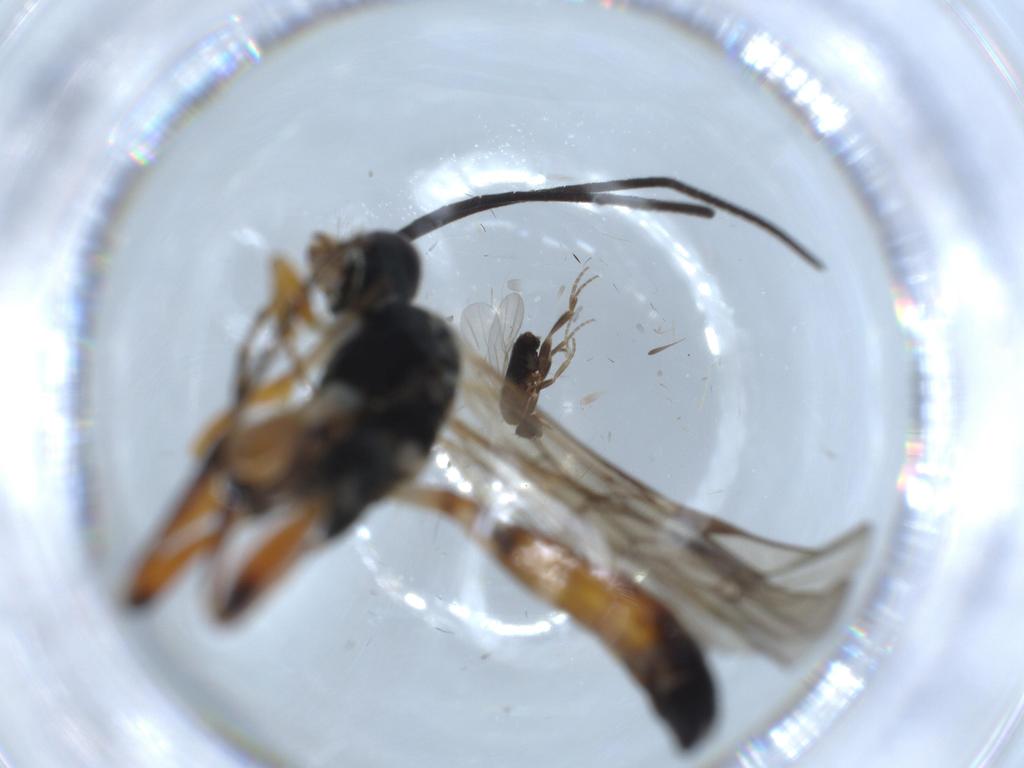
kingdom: Animalia
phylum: Arthropoda
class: Insecta
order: Hymenoptera
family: Mymaridae
